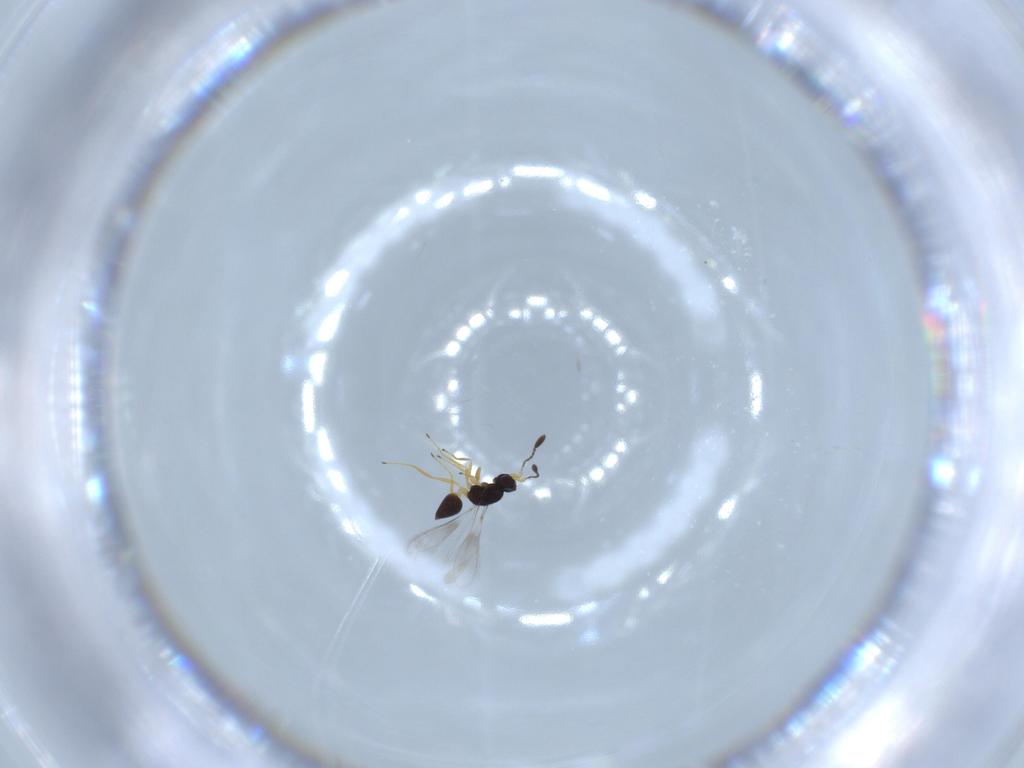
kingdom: Animalia
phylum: Arthropoda
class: Insecta
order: Hymenoptera
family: Mymaridae
